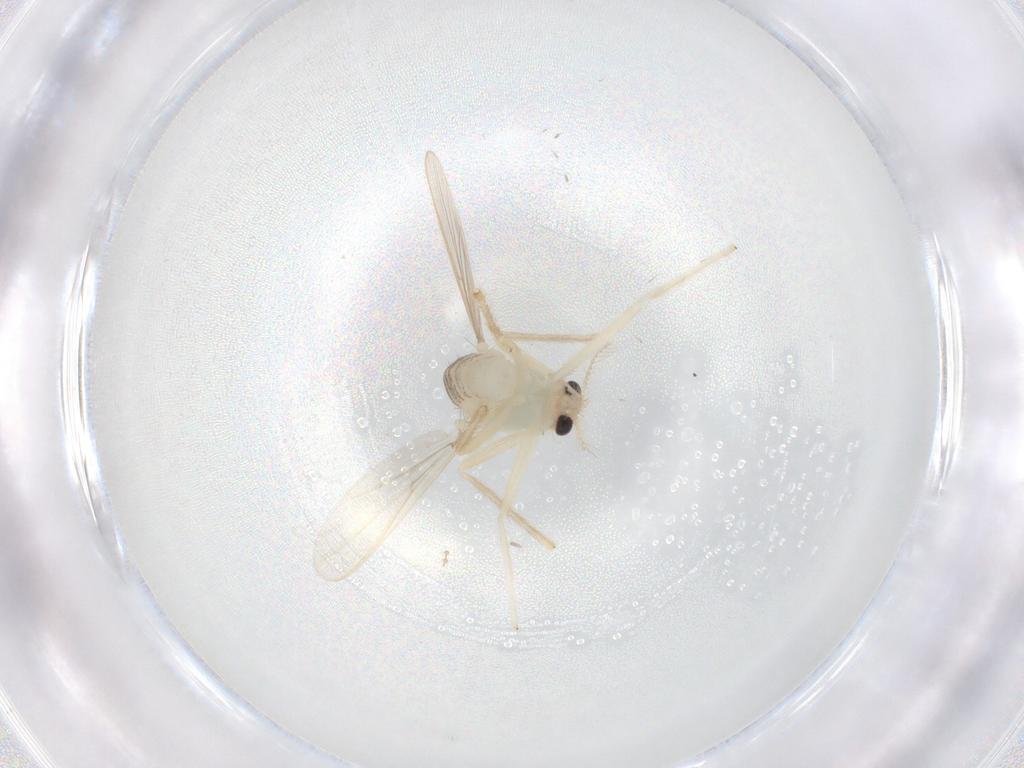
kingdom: Animalia
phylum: Arthropoda
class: Insecta
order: Diptera
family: Chironomidae
